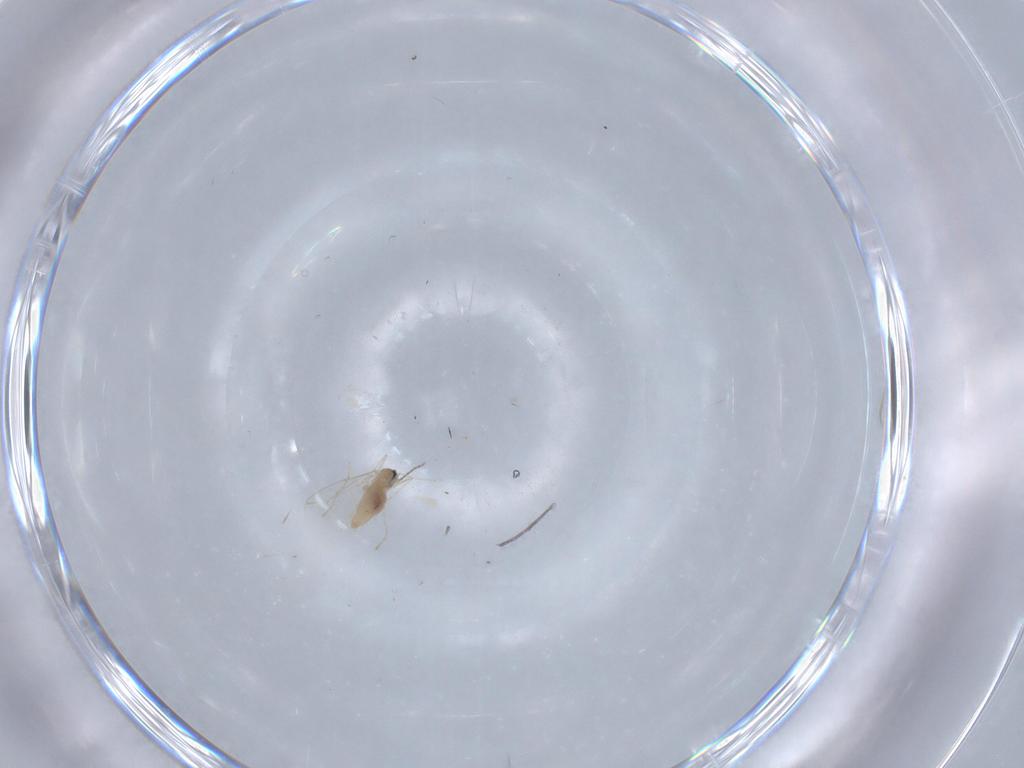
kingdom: Animalia
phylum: Arthropoda
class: Insecta
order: Diptera
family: Cecidomyiidae
